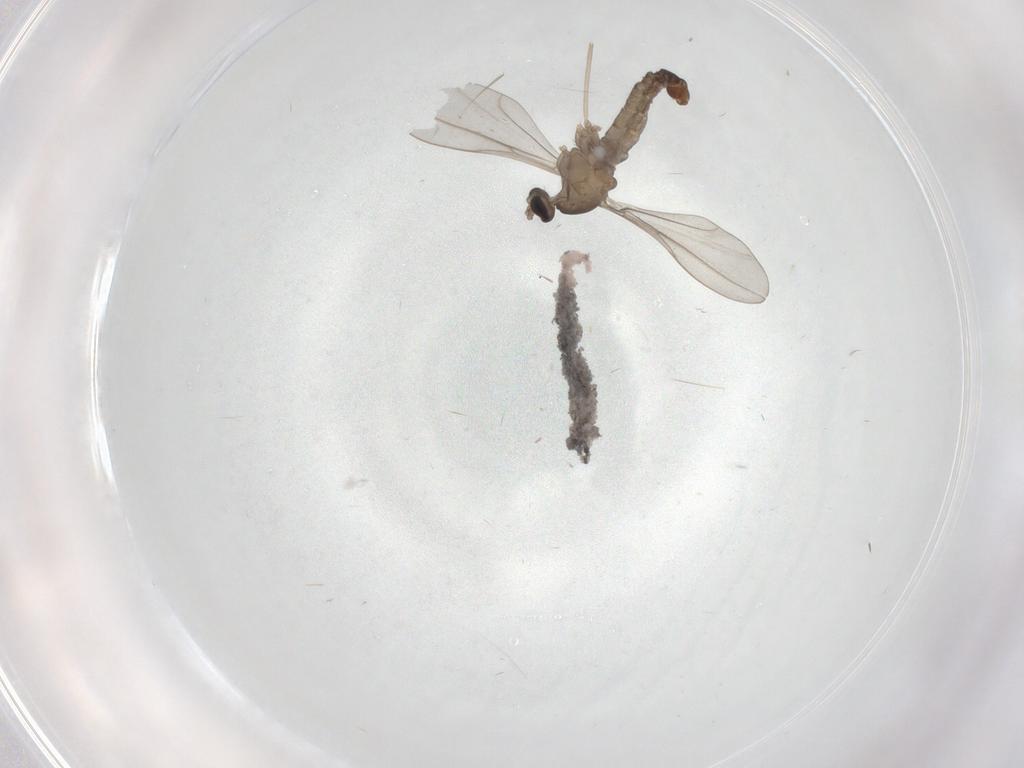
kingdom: Animalia
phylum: Arthropoda
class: Insecta
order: Diptera
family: Cecidomyiidae
